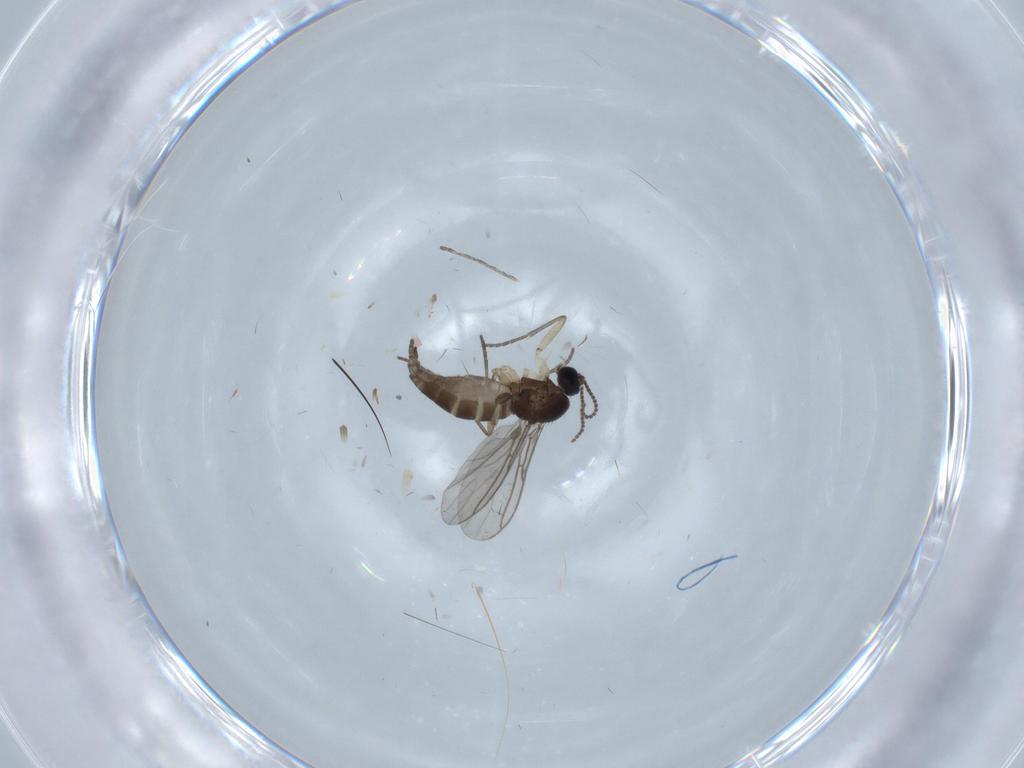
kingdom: Animalia
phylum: Arthropoda
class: Insecta
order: Diptera
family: Sciaridae
